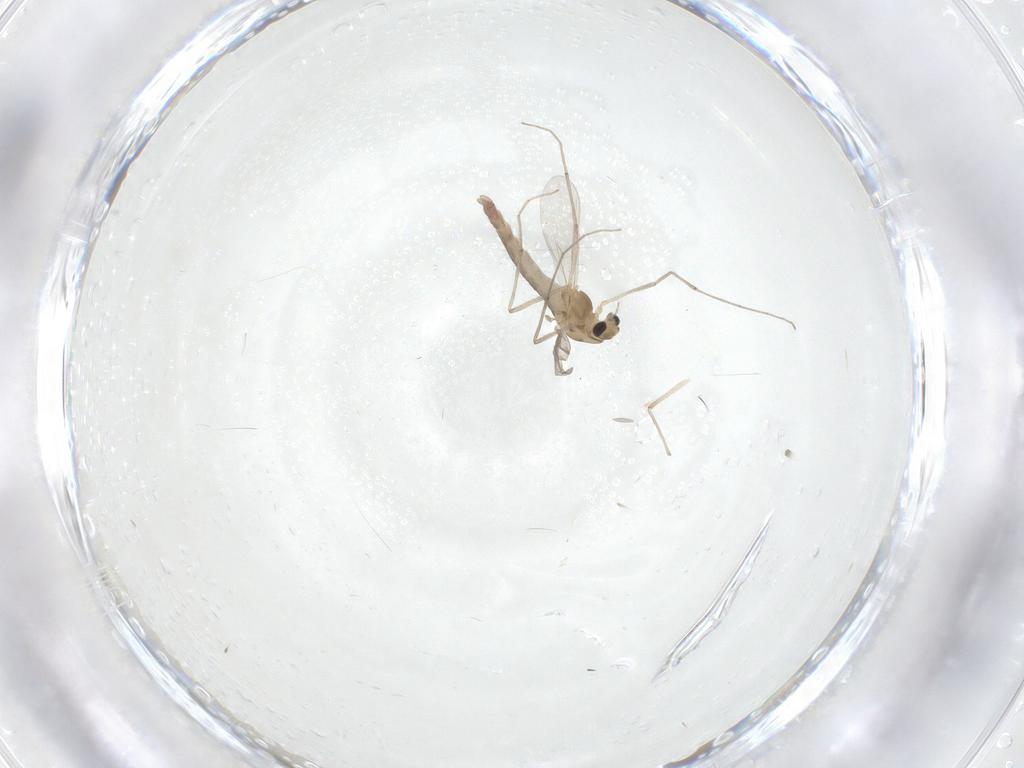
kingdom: Animalia
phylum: Arthropoda
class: Insecta
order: Diptera
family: Chironomidae
